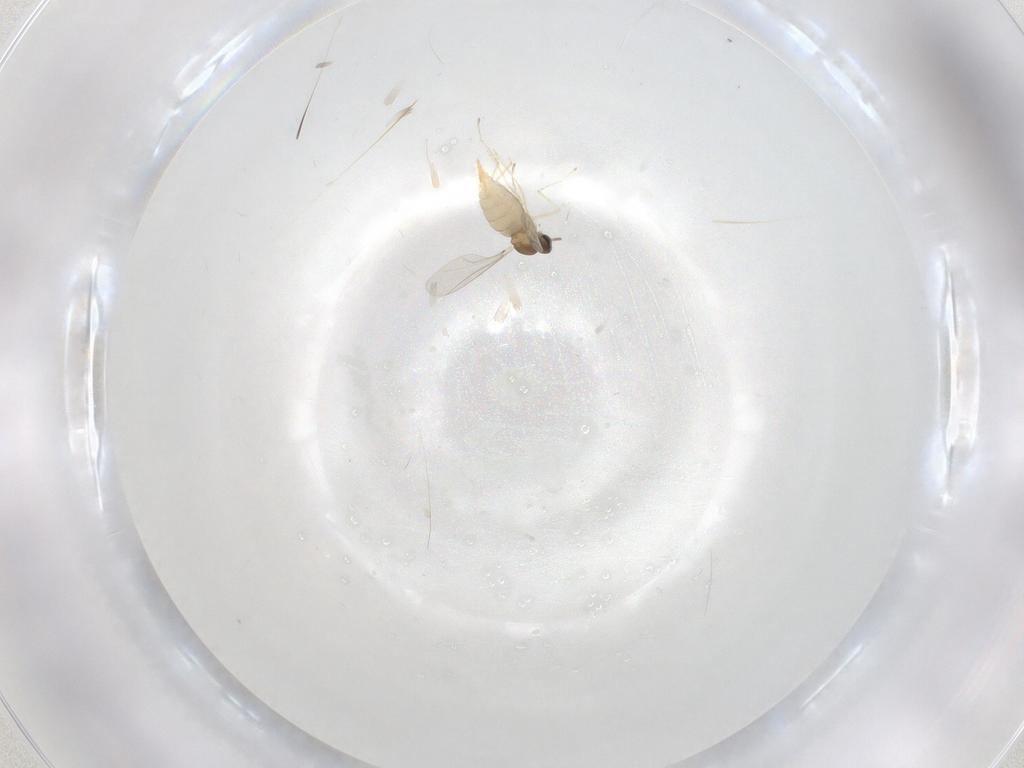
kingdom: Animalia
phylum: Arthropoda
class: Insecta
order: Diptera
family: Cecidomyiidae
